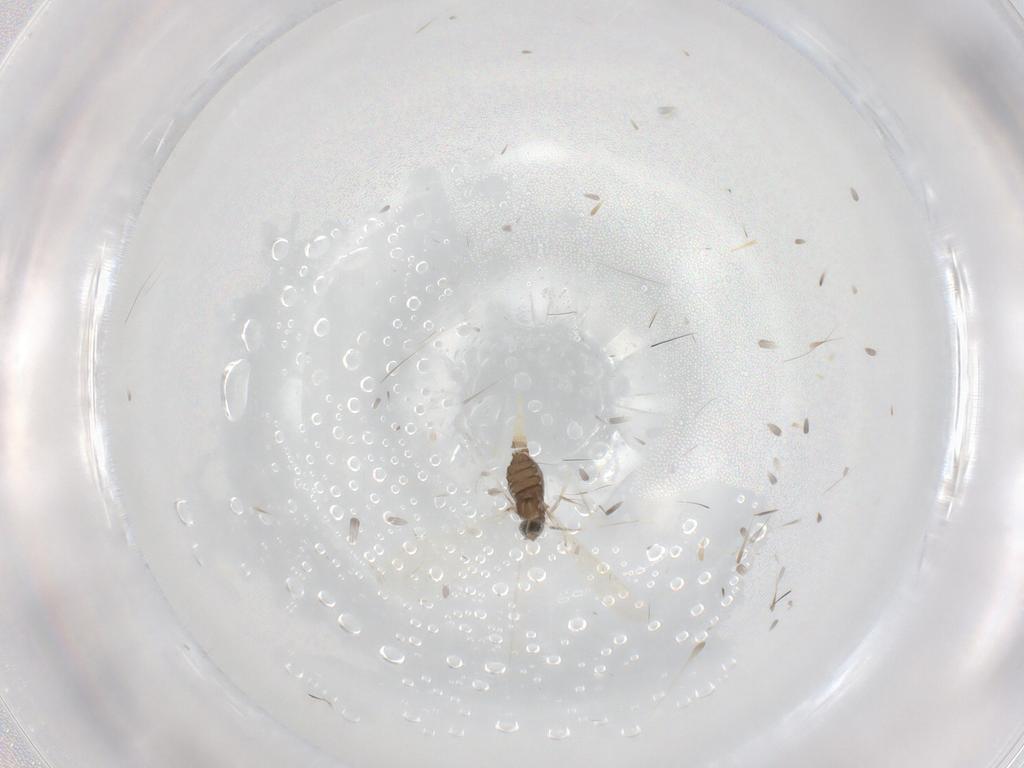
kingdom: Animalia
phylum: Arthropoda
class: Insecta
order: Diptera
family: Cecidomyiidae
